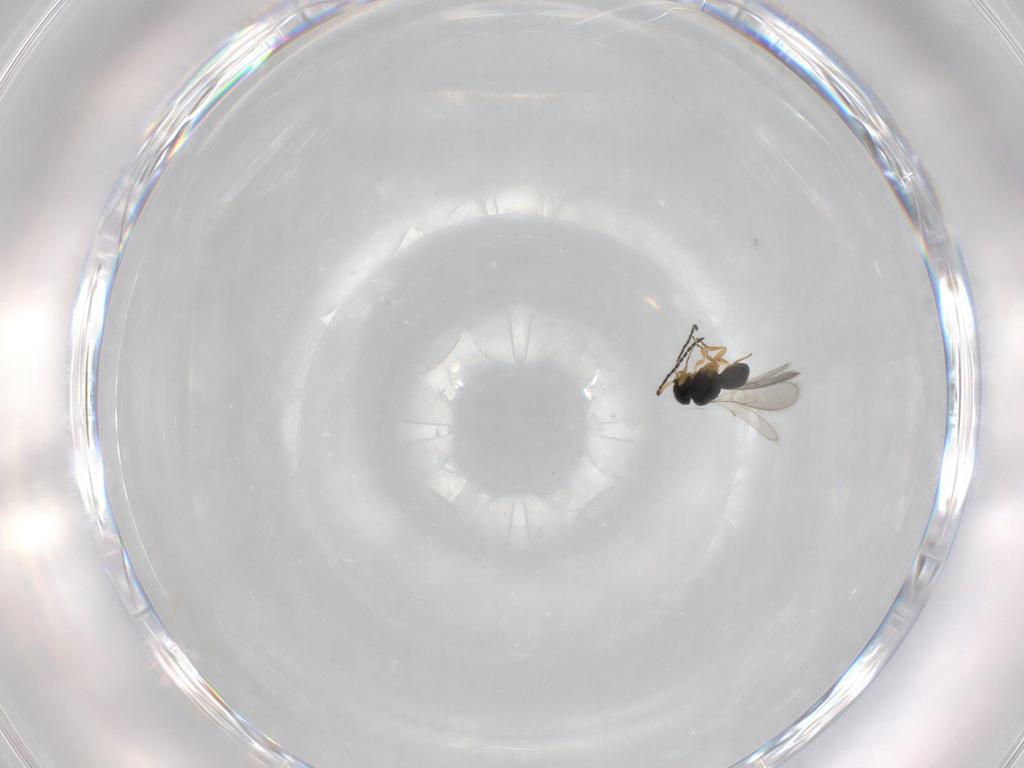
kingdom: Animalia
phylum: Arthropoda
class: Insecta
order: Hymenoptera
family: Scelionidae
